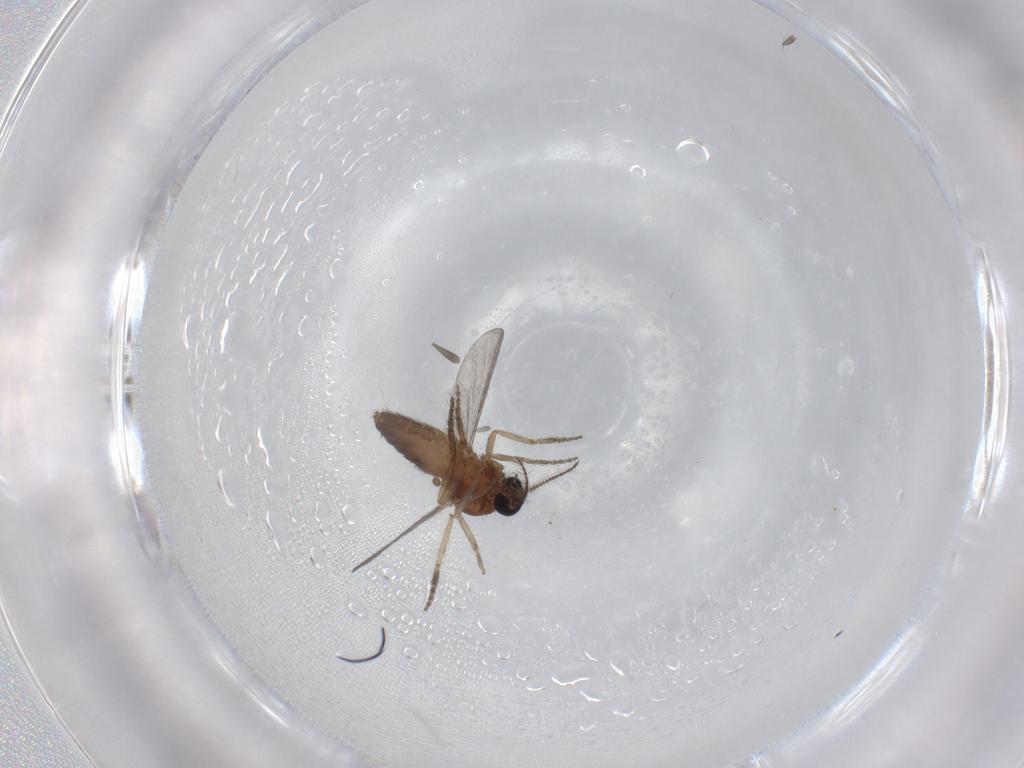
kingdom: Animalia
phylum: Arthropoda
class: Insecta
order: Diptera
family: Ceratopogonidae
